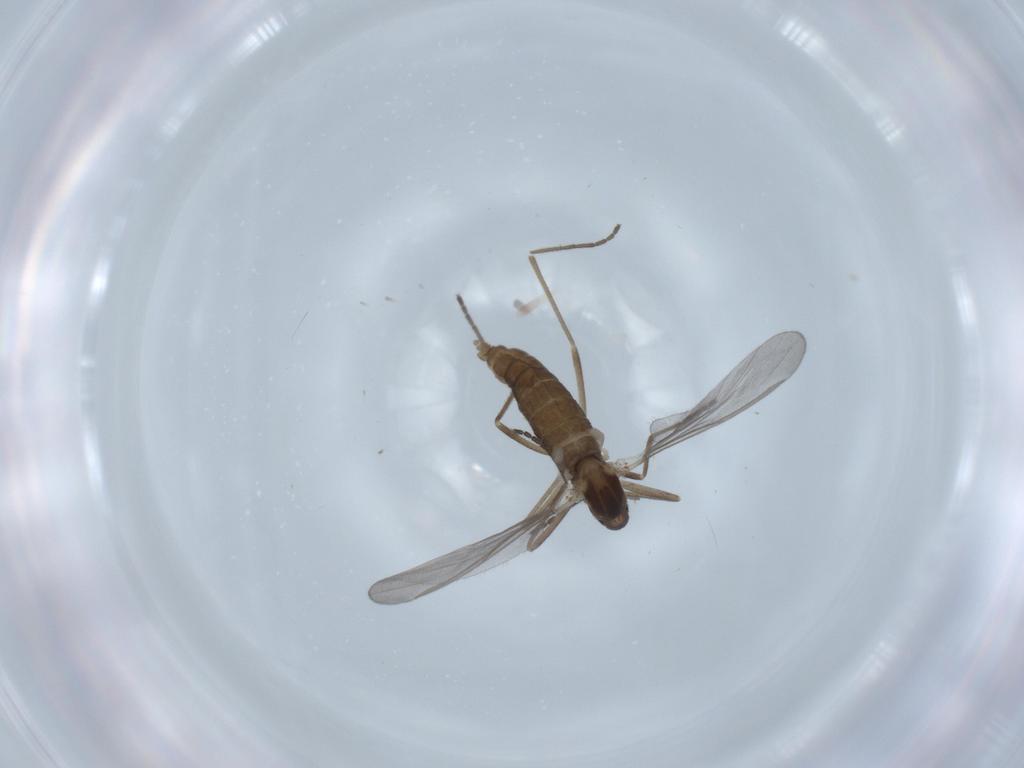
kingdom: Animalia
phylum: Arthropoda
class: Insecta
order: Diptera
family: Cecidomyiidae
